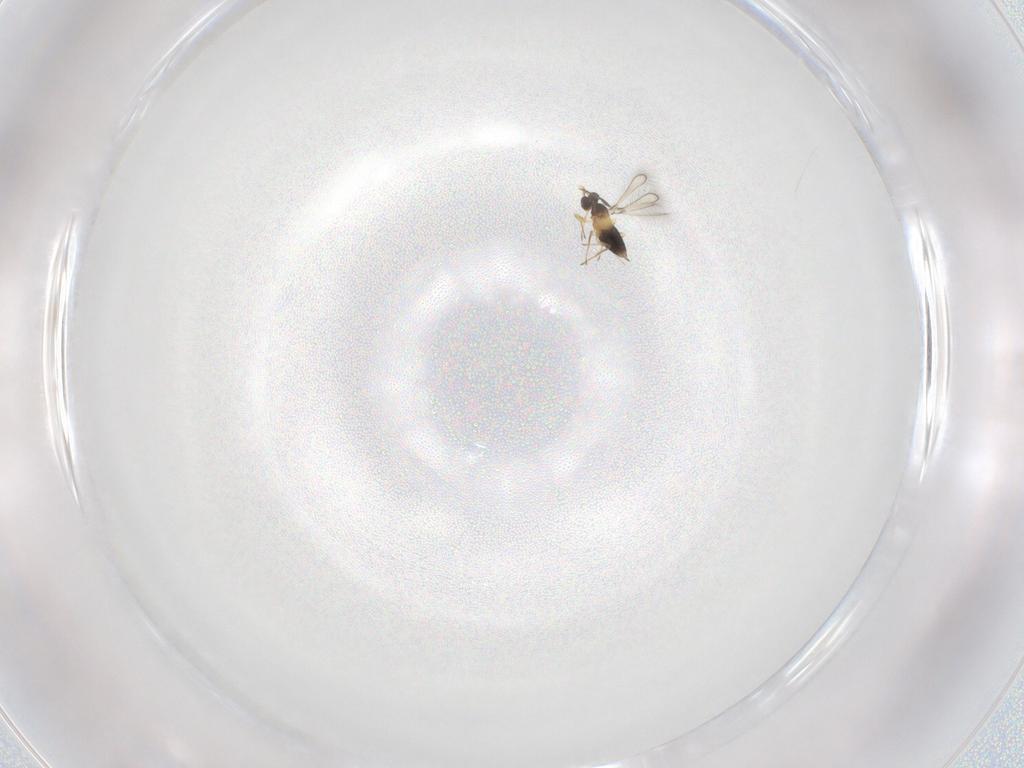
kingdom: Animalia
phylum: Arthropoda
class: Insecta
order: Hymenoptera
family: Mymaridae
